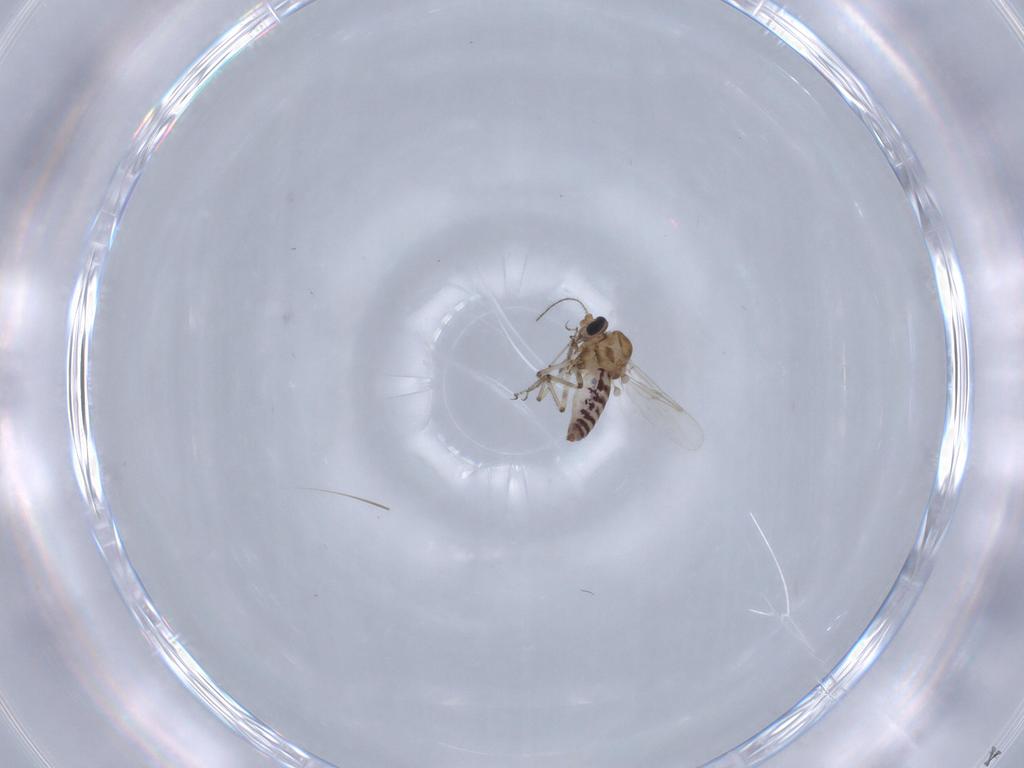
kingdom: Animalia
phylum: Arthropoda
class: Insecta
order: Diptera
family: Ceratopogonidae
